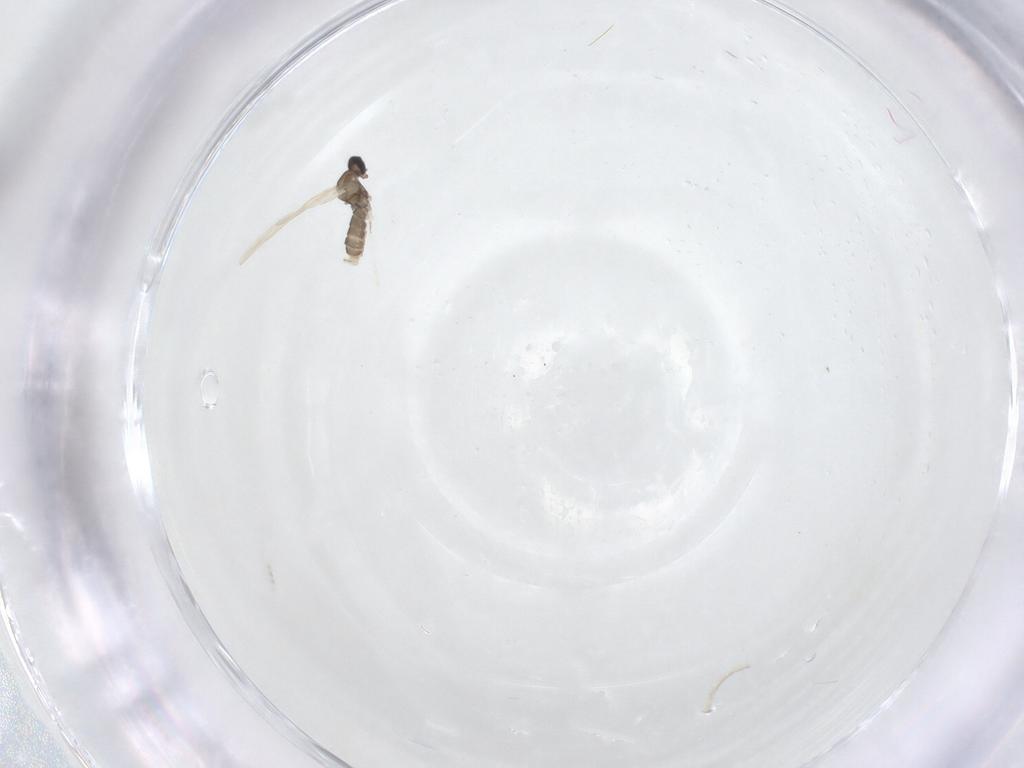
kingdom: Animalia
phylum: Arthropoda
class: Insecta
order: Diptera
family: Cecidomyiidae
